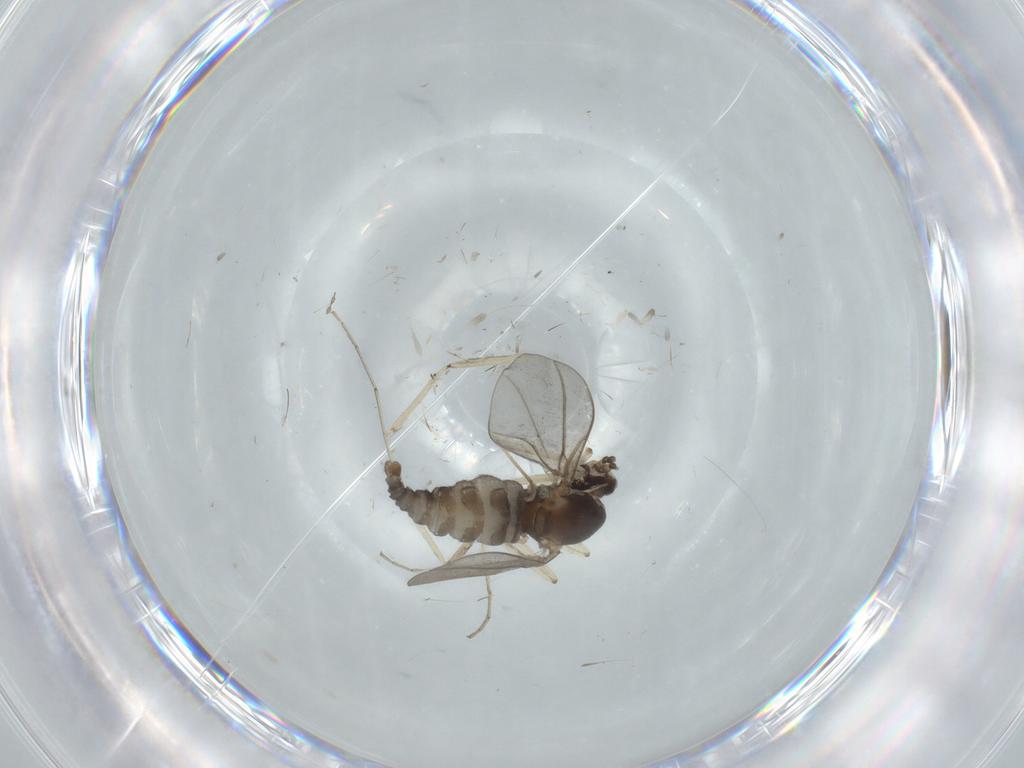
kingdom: Animalia
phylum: Arthropoda
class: Insecta
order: Diptera
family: Cecidomyiidae
